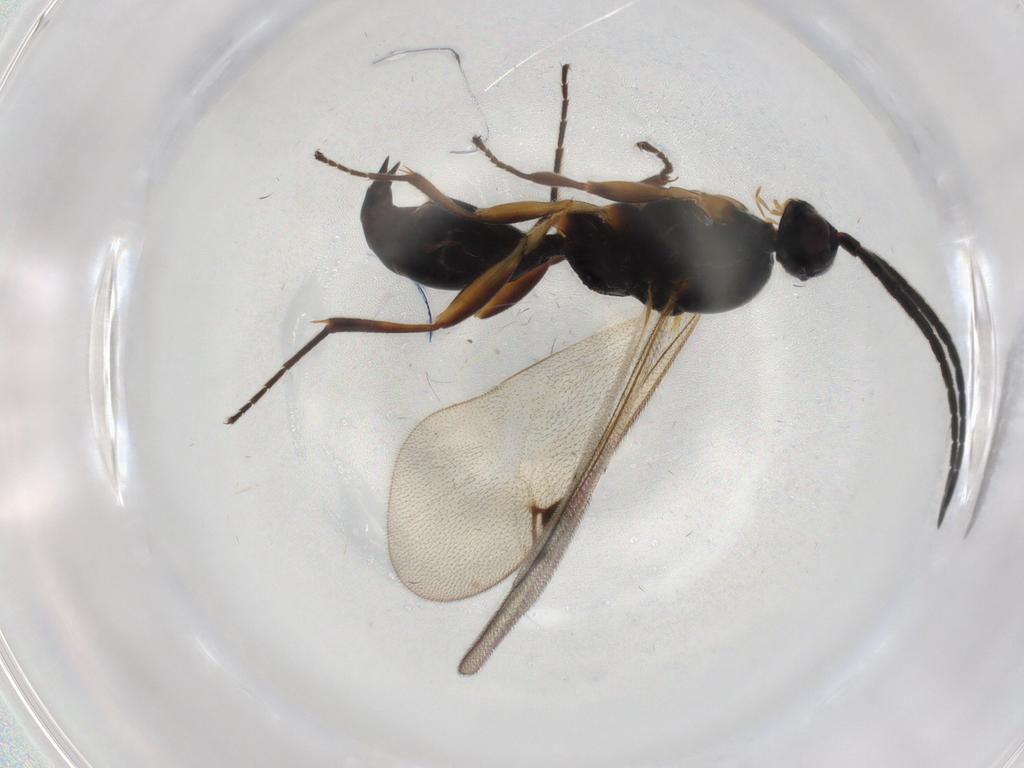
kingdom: Animalia
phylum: Arthropoda
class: Insecta
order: Hymenoptera
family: Diapriidae
